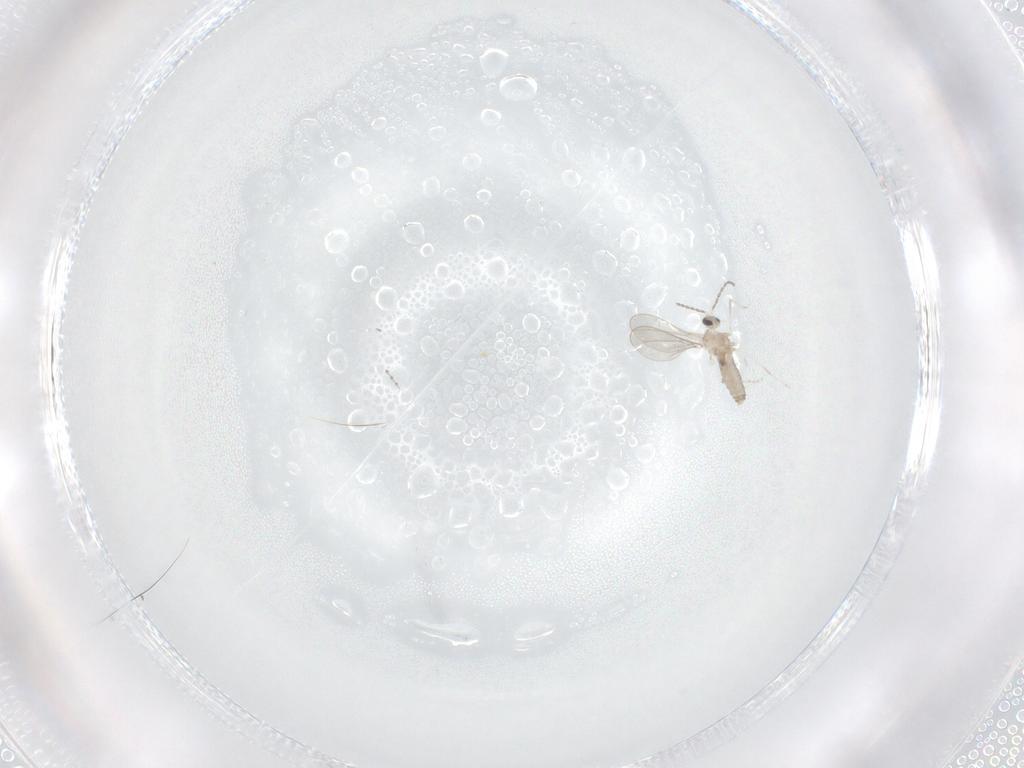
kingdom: Animalia
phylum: Arthropoda
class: Insecta
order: Diptera
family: Cecidomyiidae
